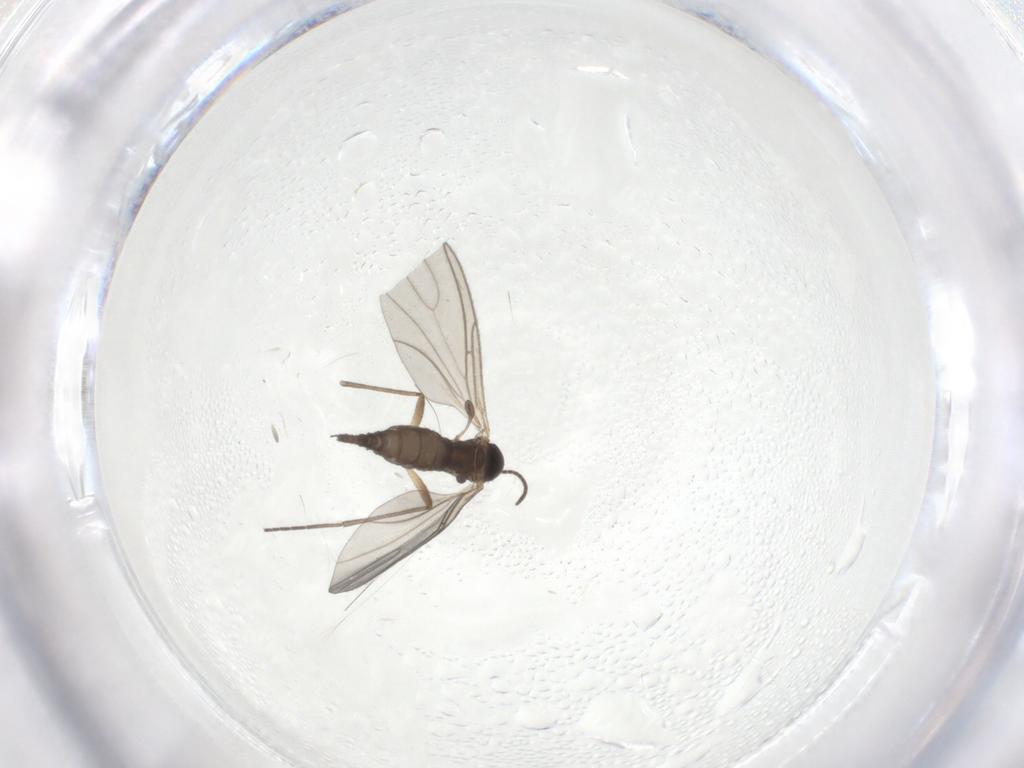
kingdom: Animalia
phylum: Arthropoda
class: Insecta
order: Diptera
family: Sciaridae
